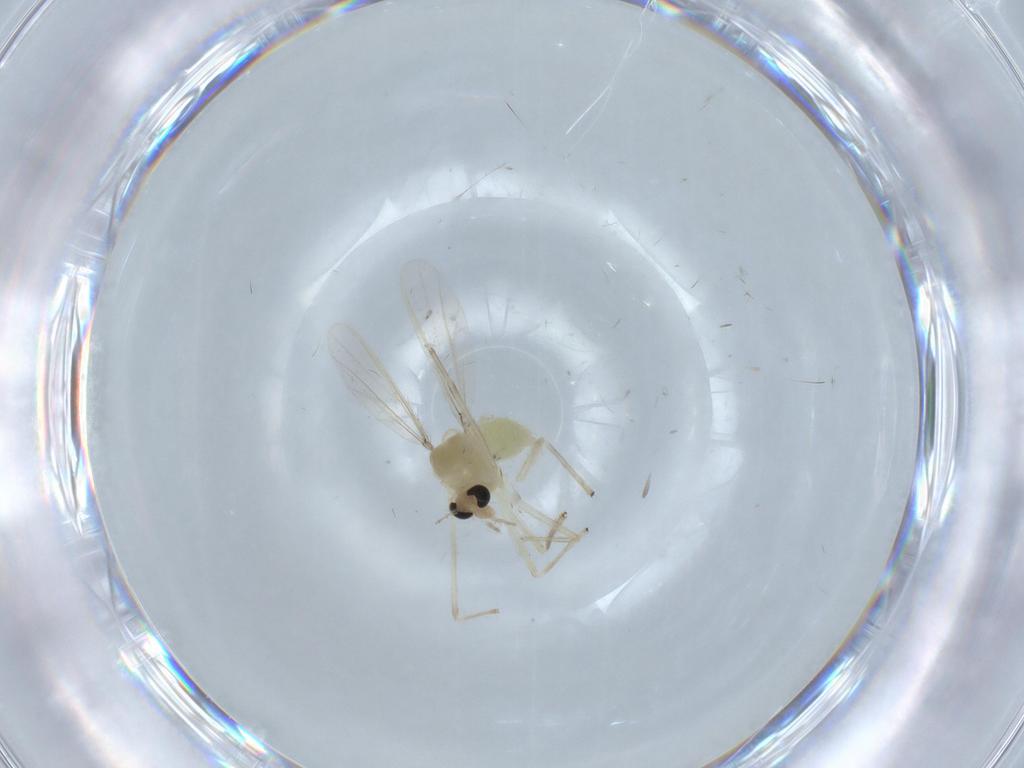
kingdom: Animalia
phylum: Arthropoda
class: Insecta
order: Diptera
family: Chironomidae
